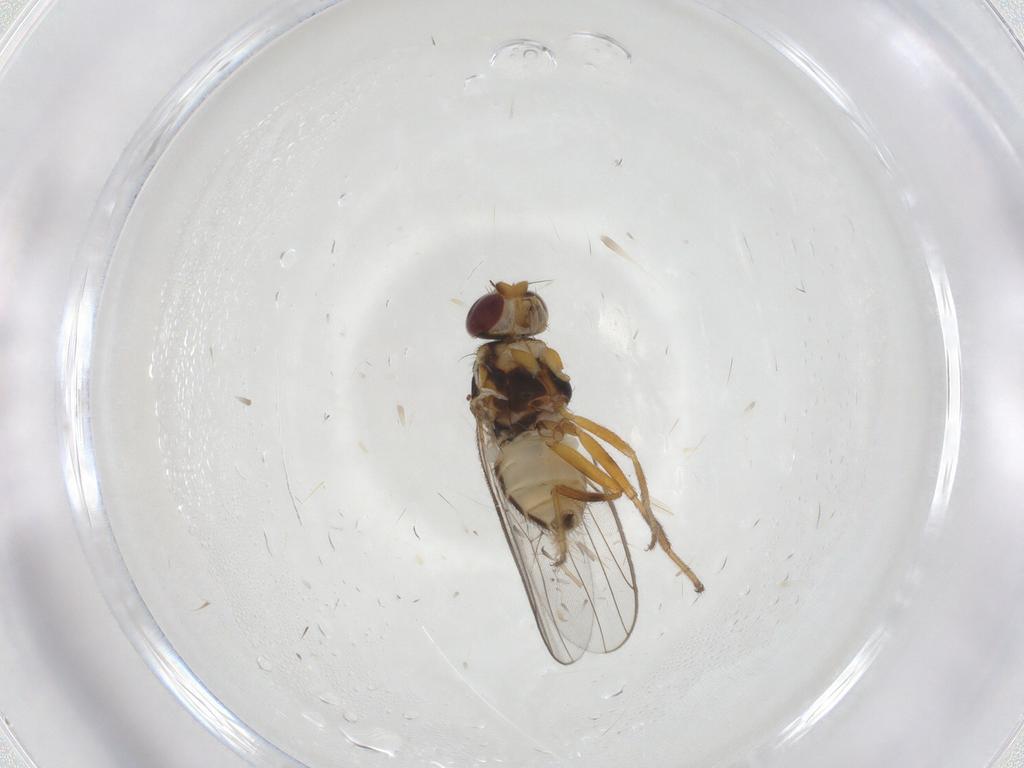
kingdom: Animalia
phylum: Arthropoda
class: Insecta
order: Diptera
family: Chloropidae
